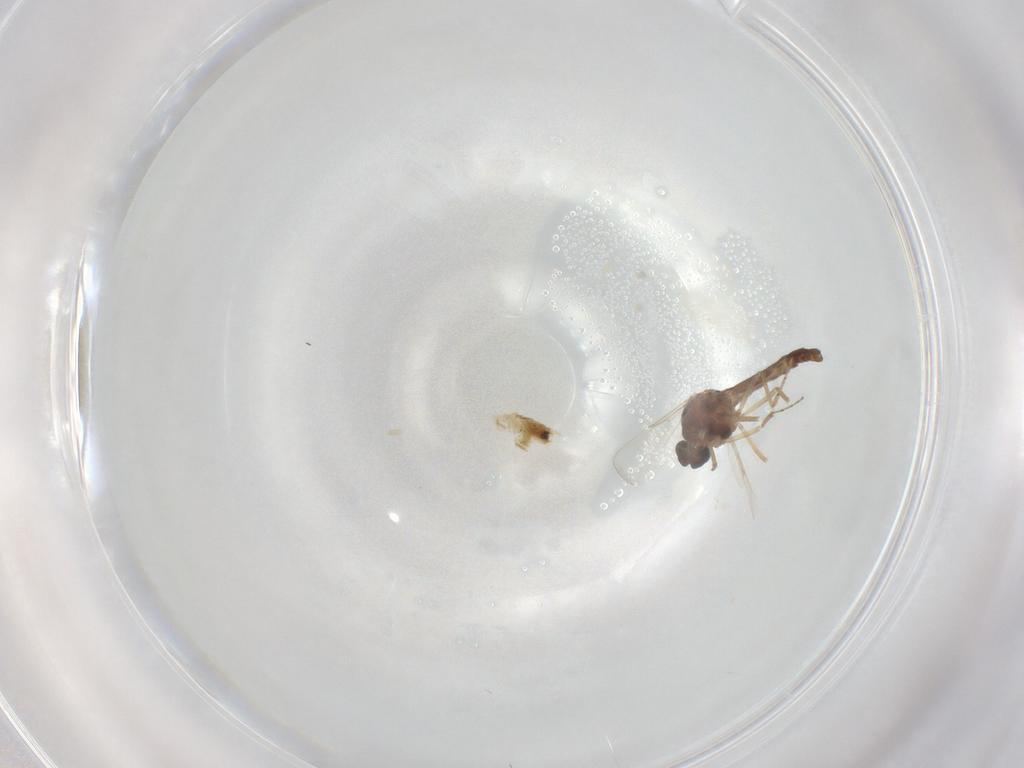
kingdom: Animalia
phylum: Arthropoda
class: Insecta
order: Diptera
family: Ceratopogonidae
